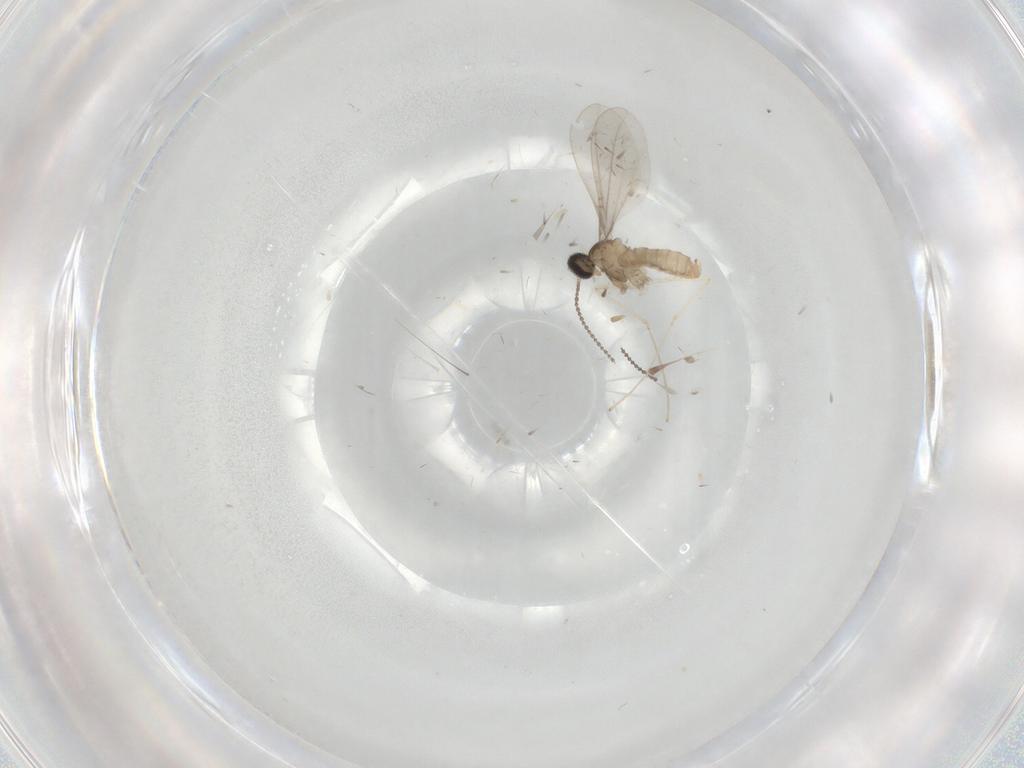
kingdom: Animalia
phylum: Arthropoda
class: Insecta
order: Diptera
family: Cecidomyiidae
